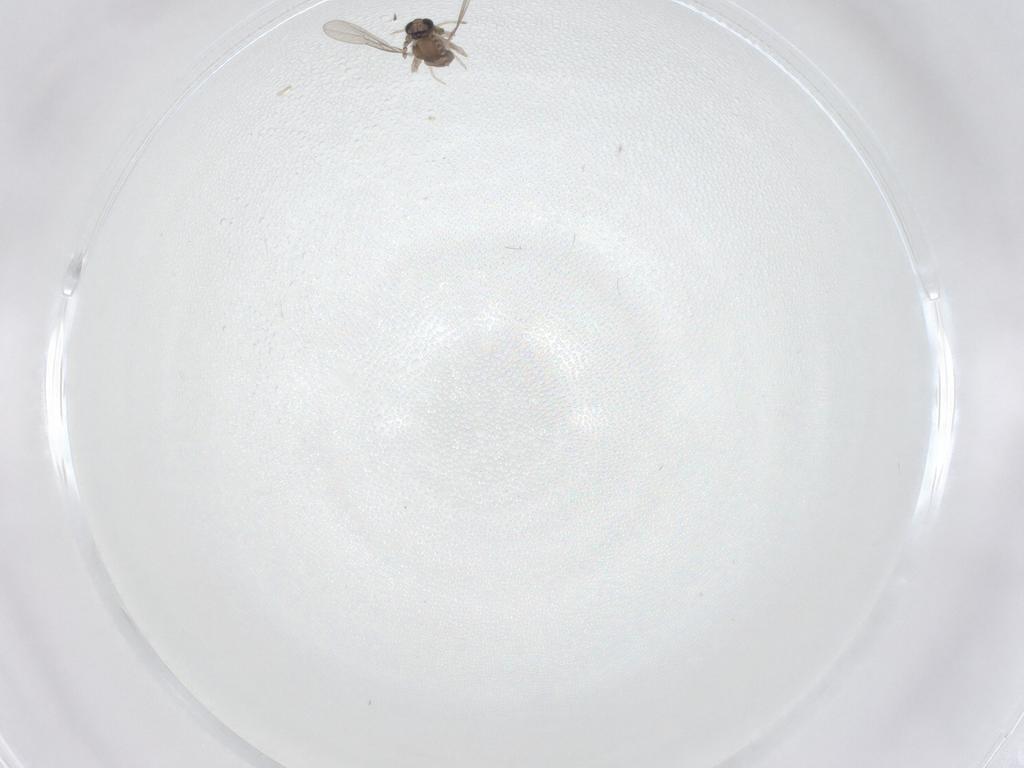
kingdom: Animalia
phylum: Arthropoda
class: Insecta
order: Diptera
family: Cecidomyiidae
